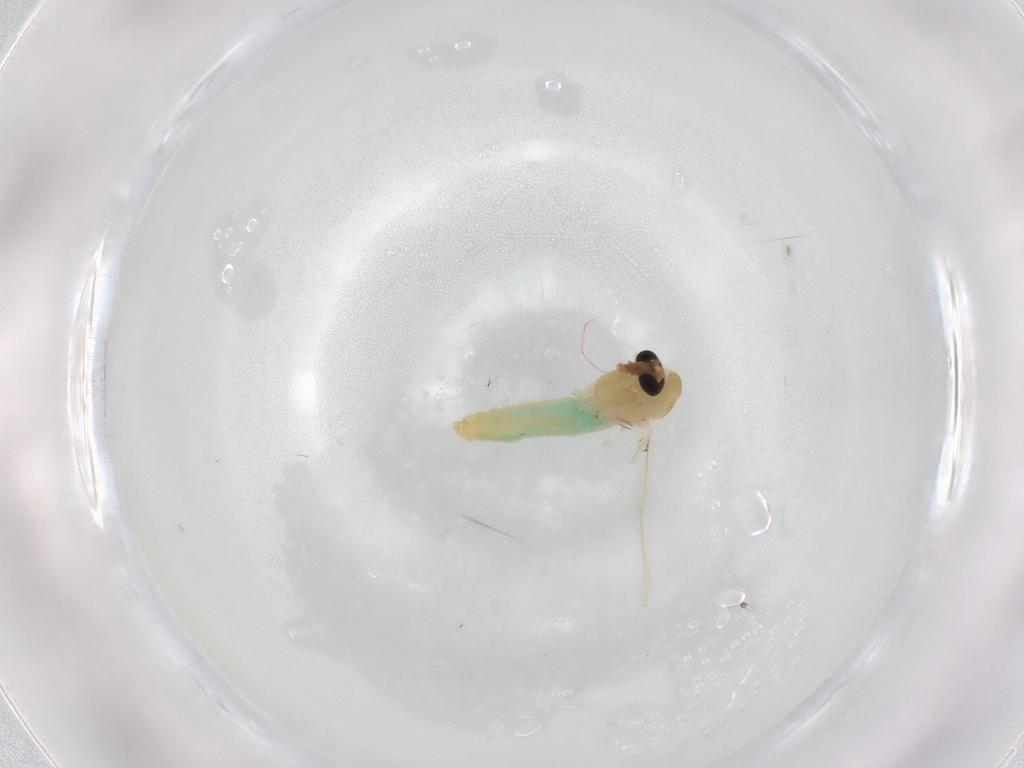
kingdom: Animalia
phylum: Arthropoda
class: Insecta
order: Diptera
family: Chironomidae
